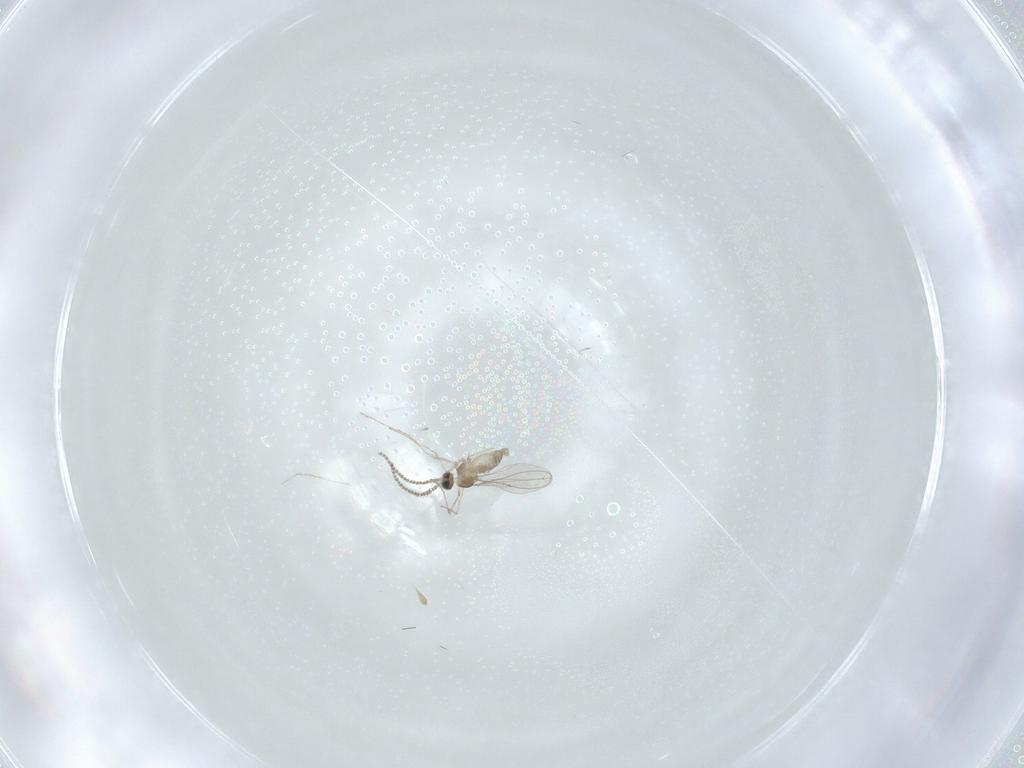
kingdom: Animalia
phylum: Arthropoda
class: Insecta
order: Diptera
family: Cecidomyiidae
